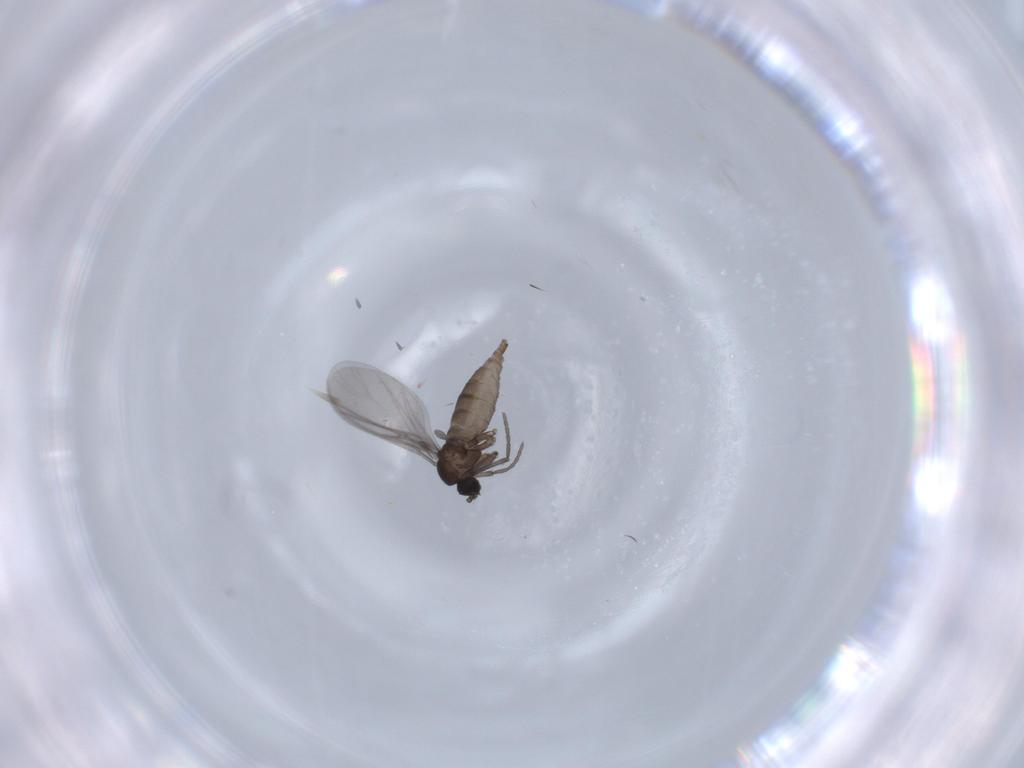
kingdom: Animalia
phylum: Arthropoda
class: Insecta
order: Diptera
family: Sciaridae
